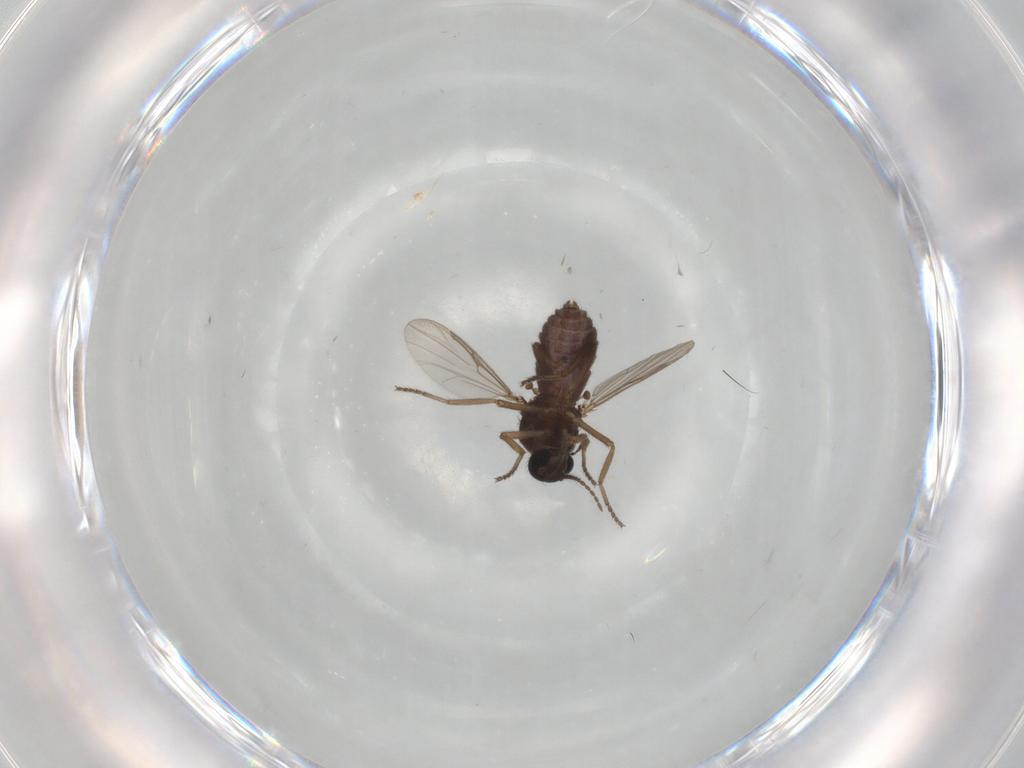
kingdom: Animalia
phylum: Arthropoda
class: Insecta
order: Diptera
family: Ceratopogonidae
